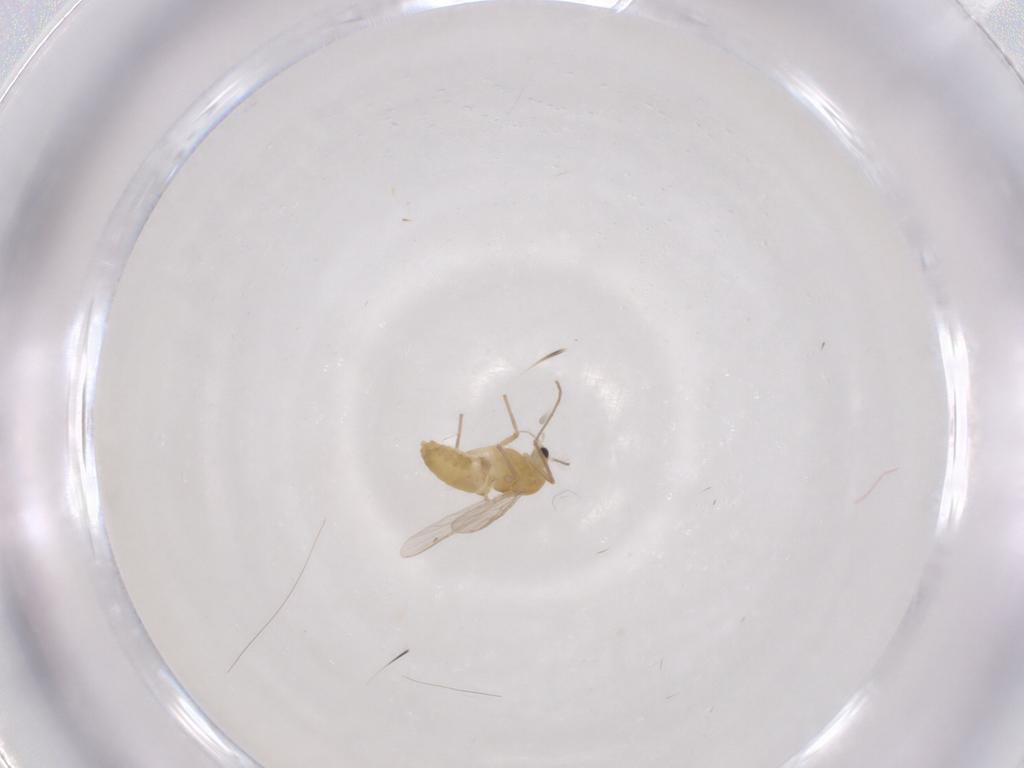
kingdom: Animalia
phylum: Arthropoda
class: Insecta
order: Diptera
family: Chironomidae
